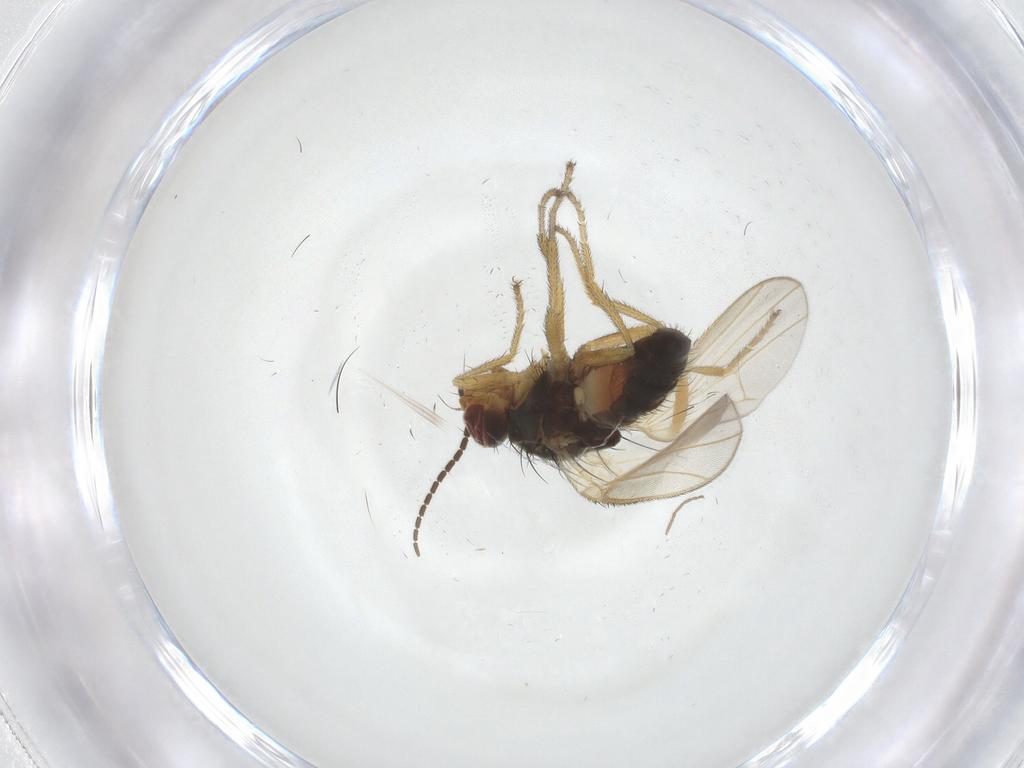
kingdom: Animalia
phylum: Arthropoda
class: Insecta
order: Diptera
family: Heleomyzidae
